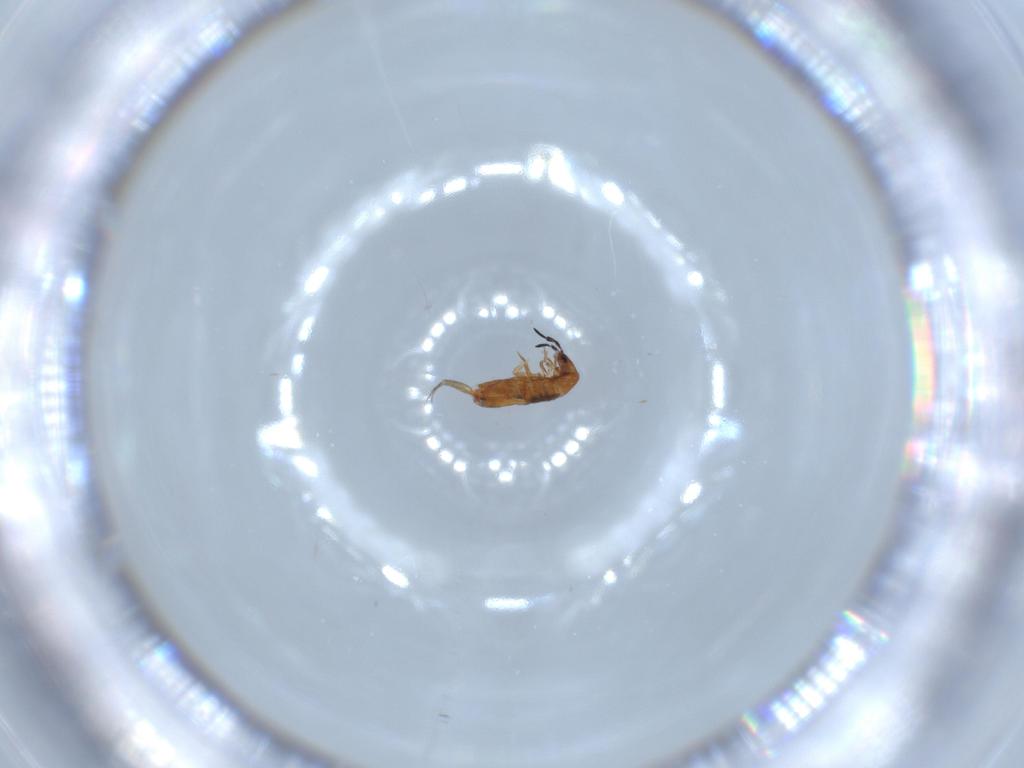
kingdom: Animalia
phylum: Arthropoda
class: Collembola
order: Entomobryomorpha
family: Entomobryidae
